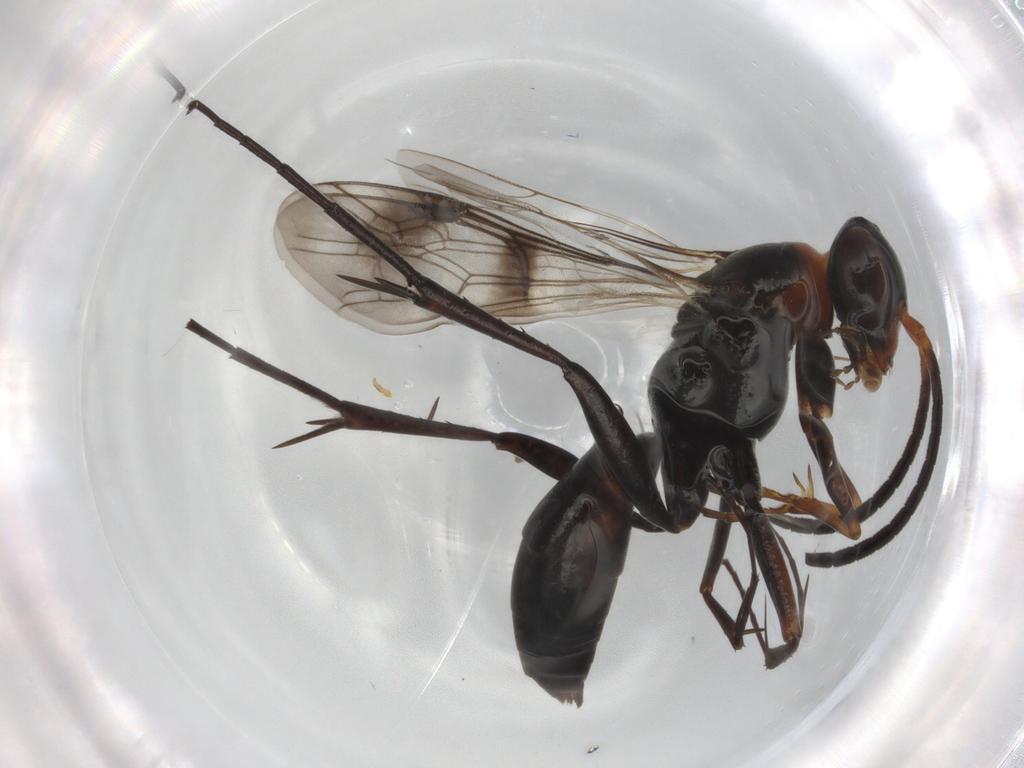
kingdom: Animalia
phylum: Arthropoda
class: Insecta
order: Hymenoptera
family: Pompilidae
